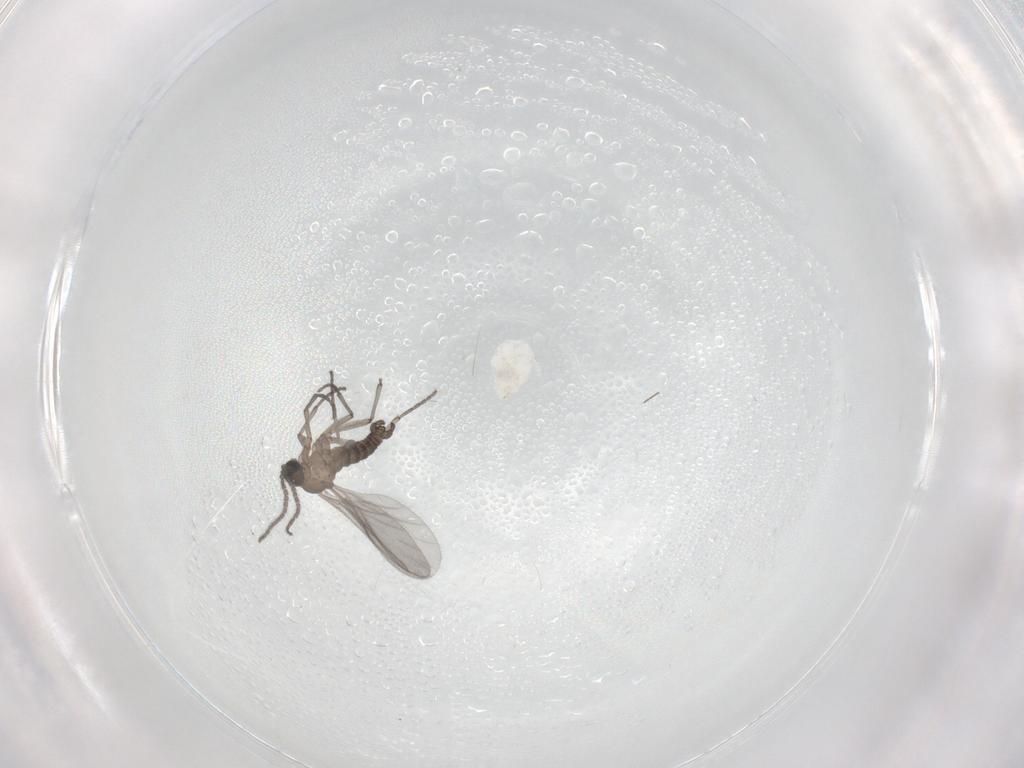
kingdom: Animalia
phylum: Arthropoda
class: Insecta
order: Diptera
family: Sciaridae
